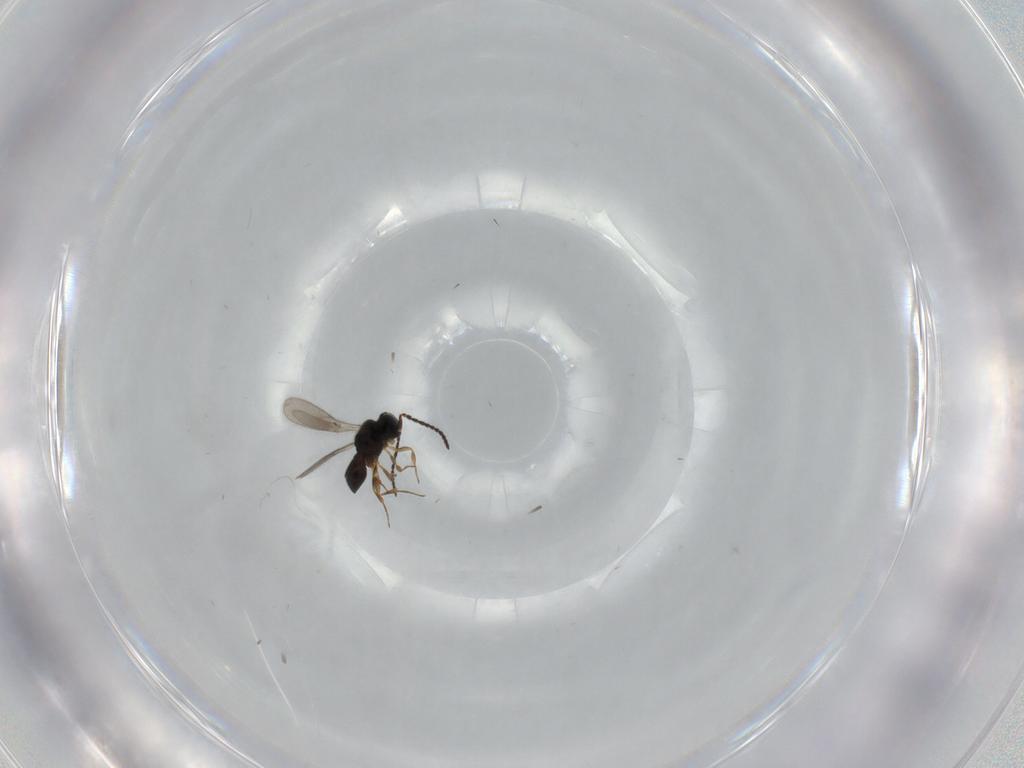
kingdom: Animalia
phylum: Arthropoda
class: Insecta
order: Hymenoptera
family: Scelionidae
